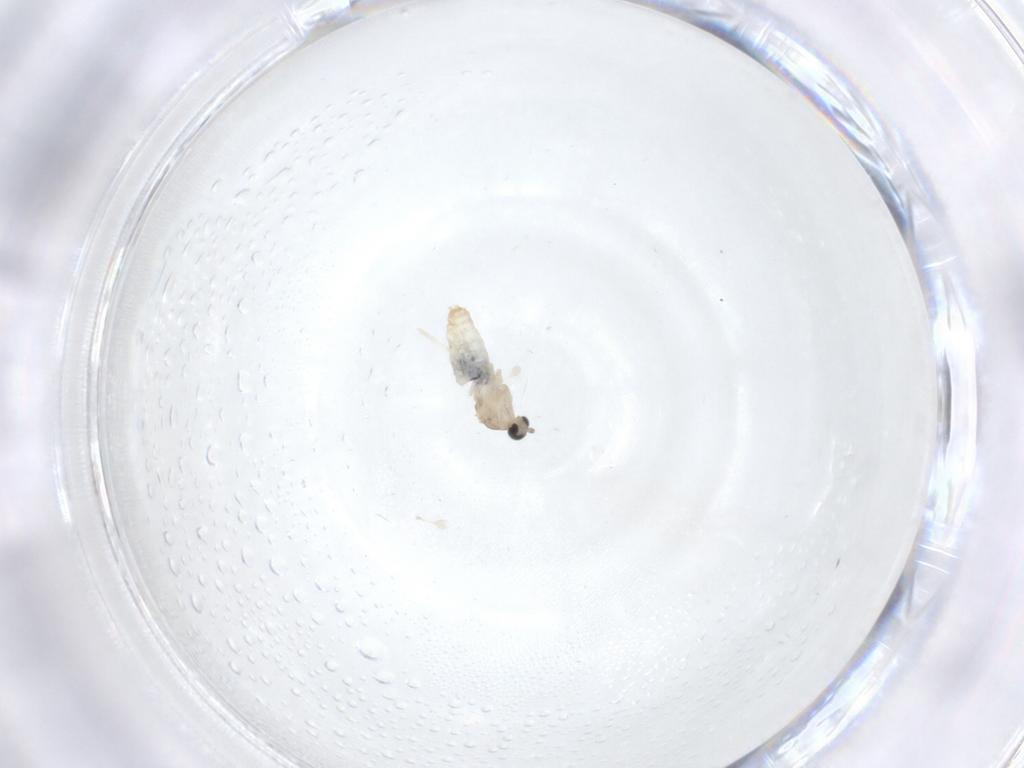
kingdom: Animalia
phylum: Arthropoda
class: Insecta
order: Diptera
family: Cecidomyiidae
